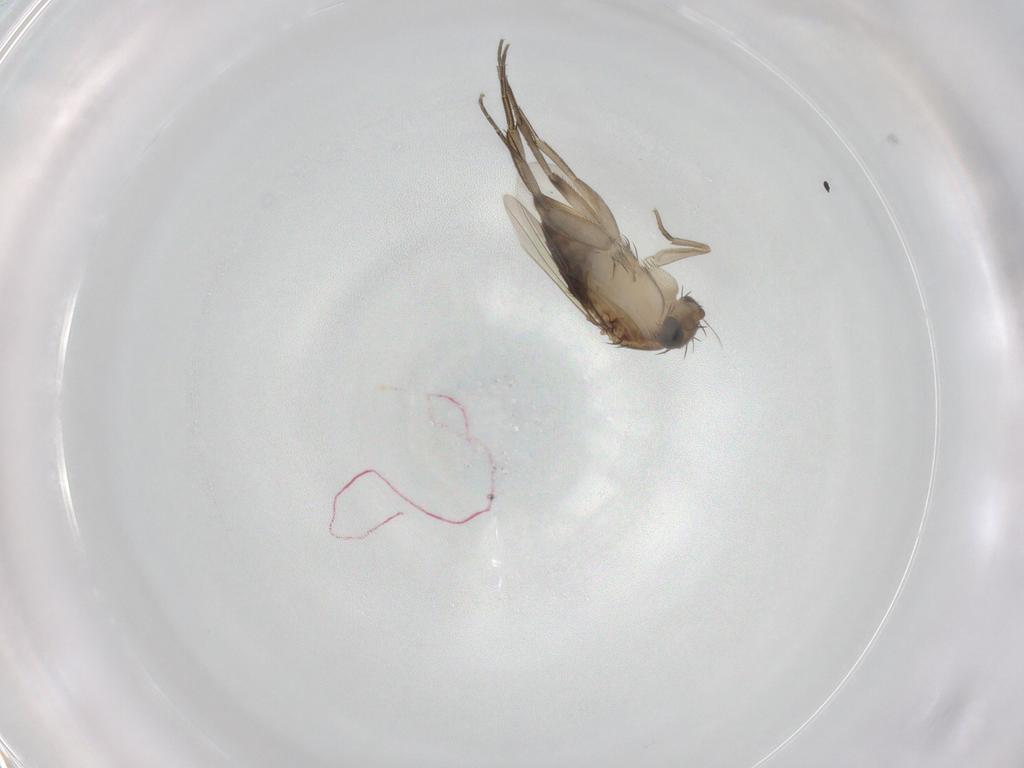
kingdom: Animalia
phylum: Arthropoda
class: Insecta
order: Diptera
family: Phoridae
